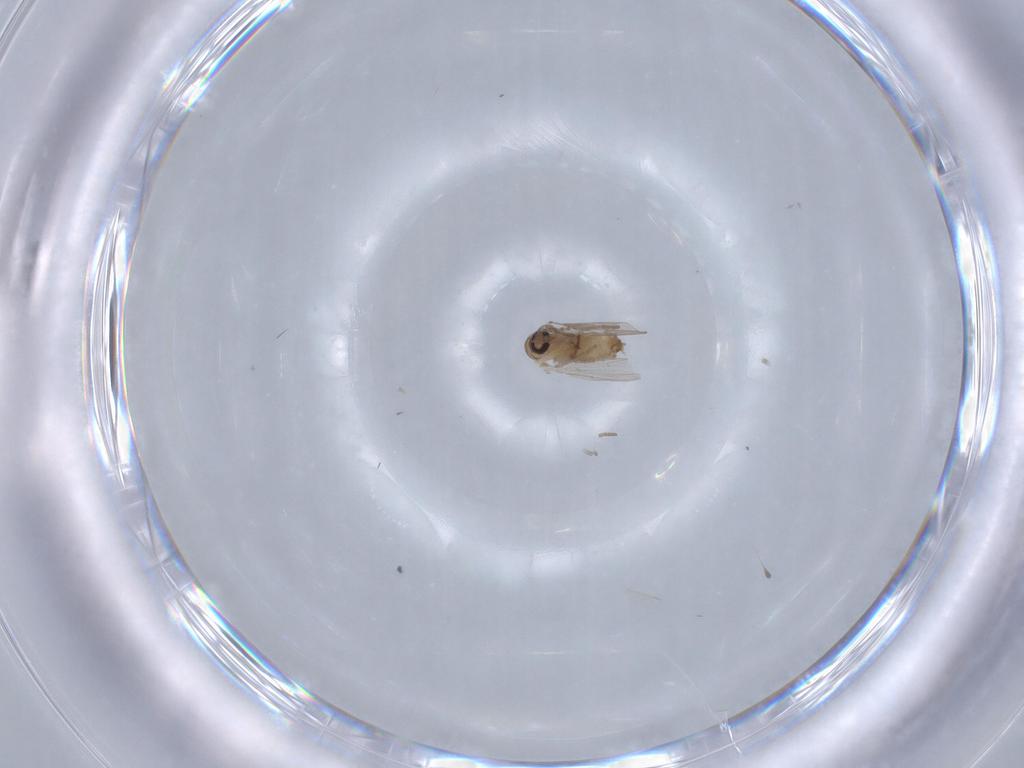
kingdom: Animalia
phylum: Arthropoda
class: Insecta
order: Diptera
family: Psychodidae
